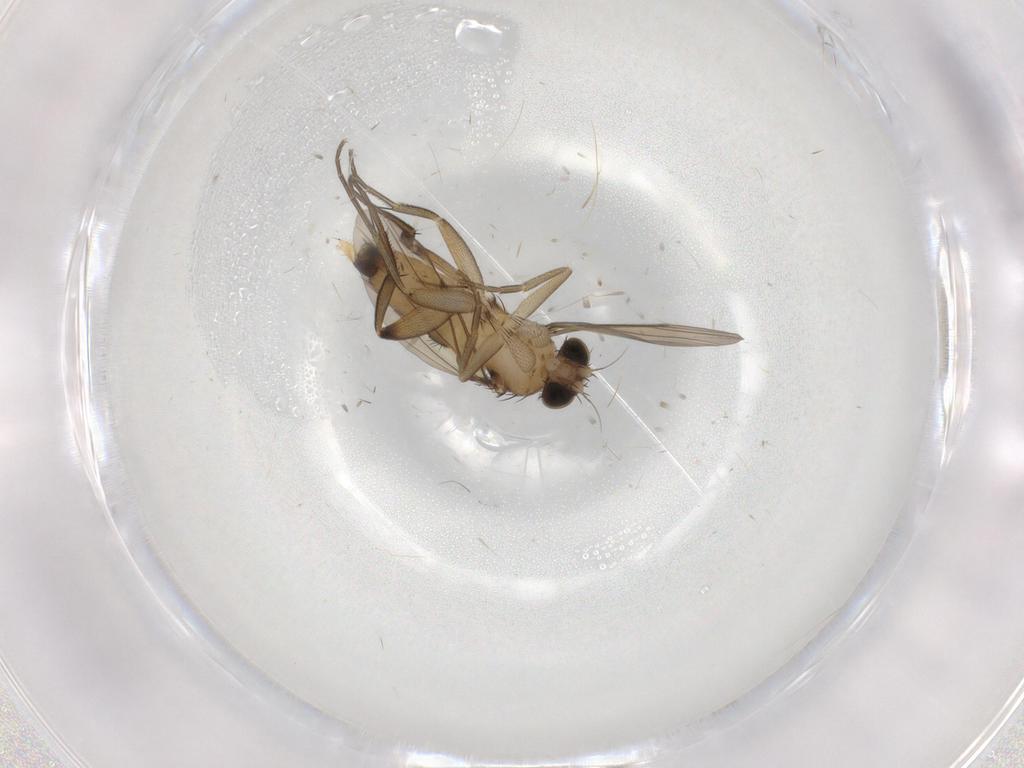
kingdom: Animalia
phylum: Arthropoda
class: Insecta
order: Diptera
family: Phoridae
